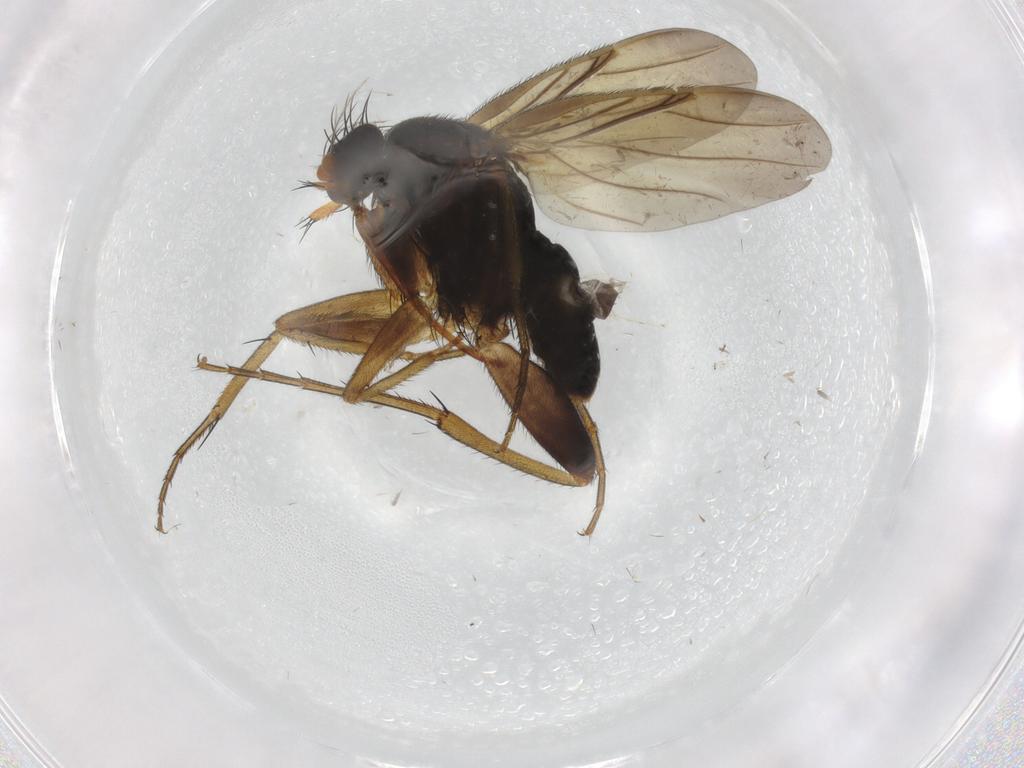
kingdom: Animalia
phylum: Arthropoda
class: Insecta
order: Diptera
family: Phoridae
